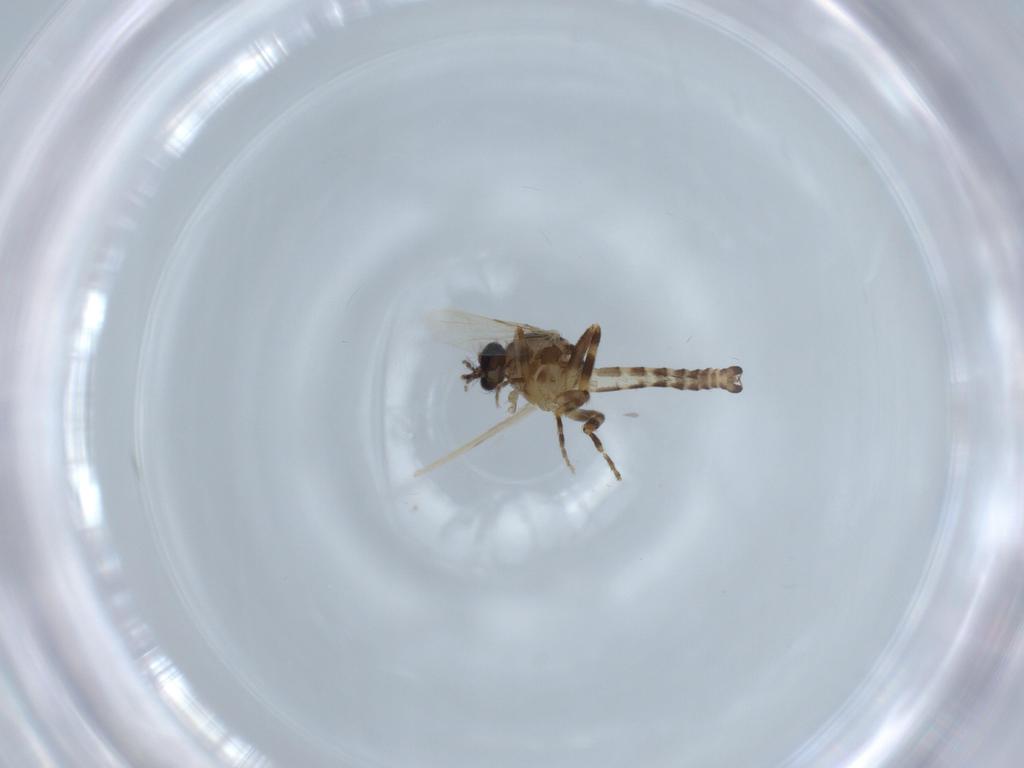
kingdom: Animalia
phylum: Arthropoda
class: Insecta
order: Diptera
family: Ceratopogonidae
